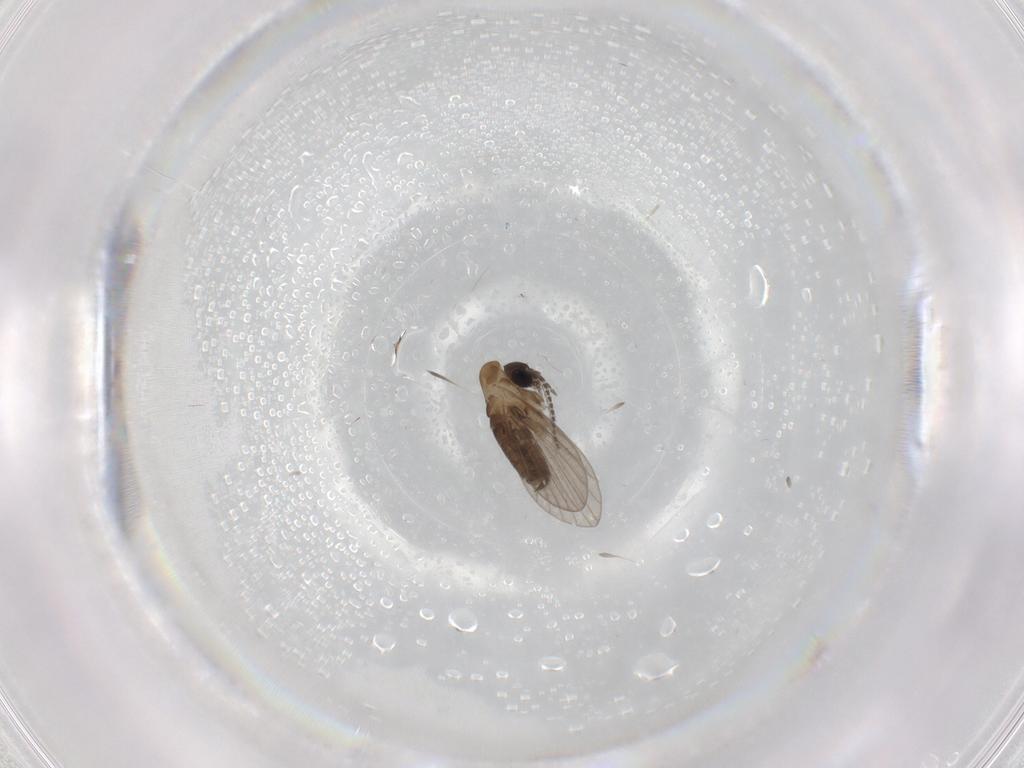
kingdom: Animalia
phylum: Arthropoda
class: Insecta
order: Diptera
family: Psychodidae
